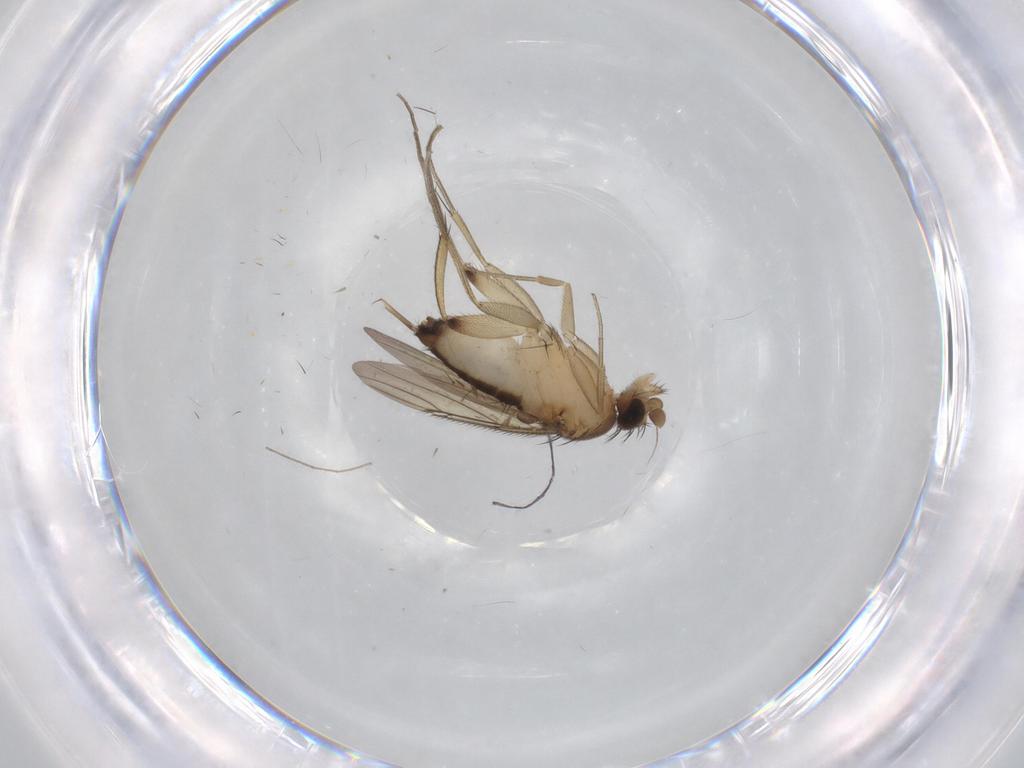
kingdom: Animalia
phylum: Arthropoda
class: Insecta
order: Diptera
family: Phoridae
